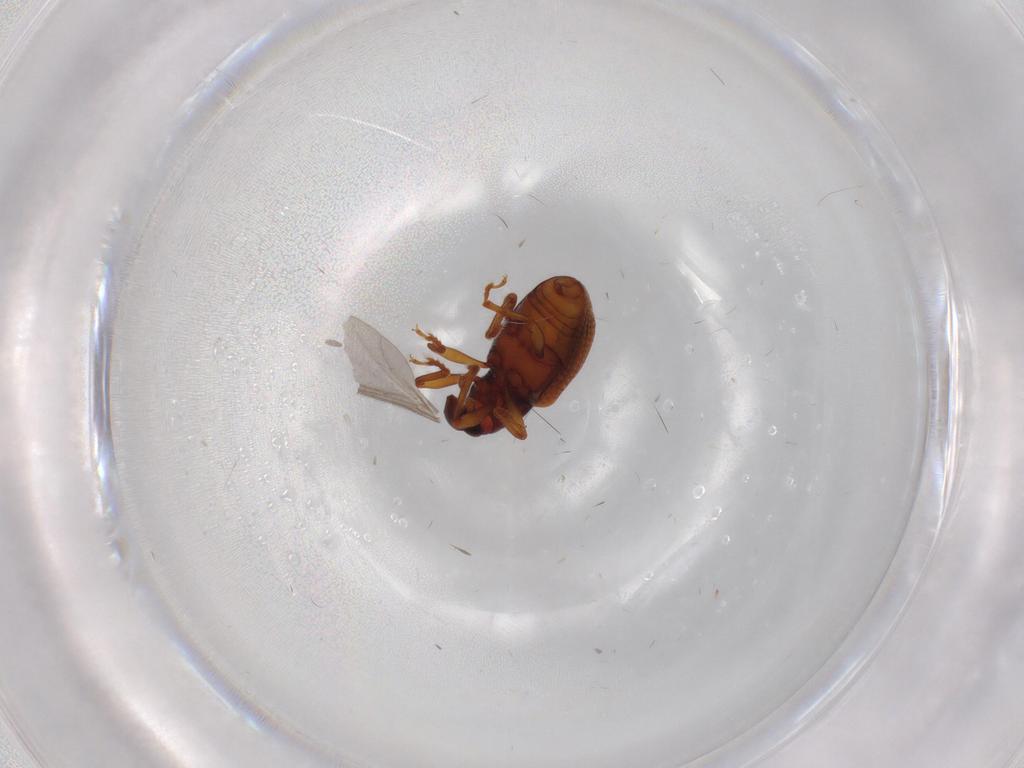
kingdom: Animalia
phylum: Arthropoda
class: Insecta
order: Coleoptera
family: Curculionidae
